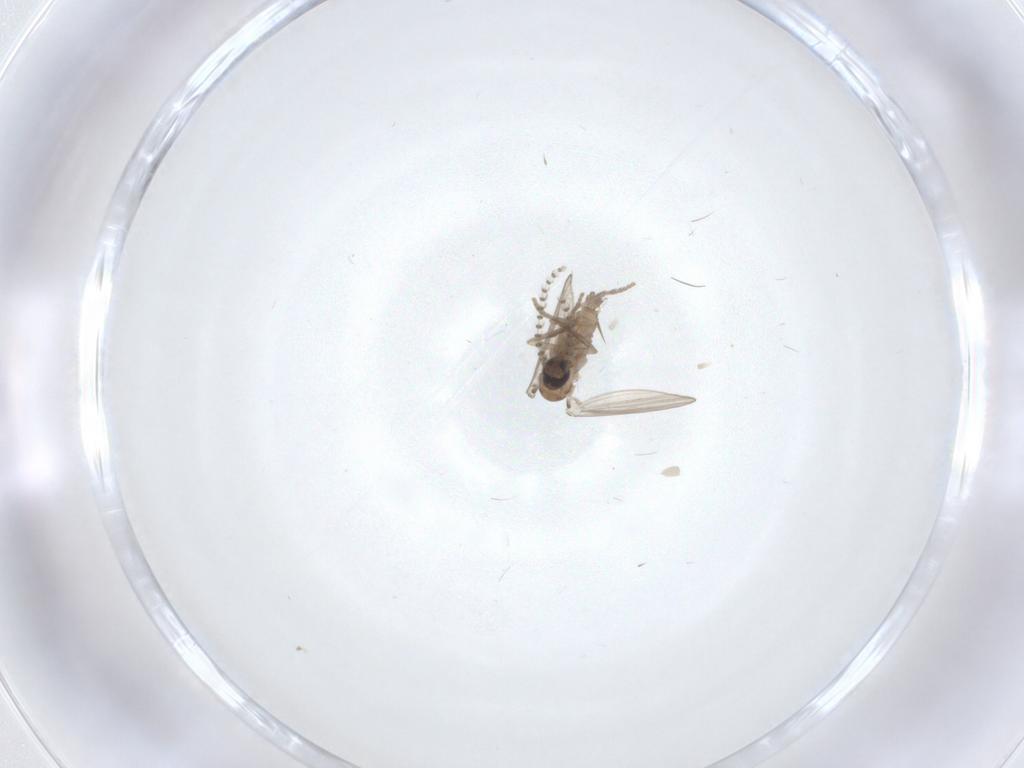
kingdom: Animalia
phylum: Arthropoda
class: Insecta
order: Diptera
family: Psychodidae
